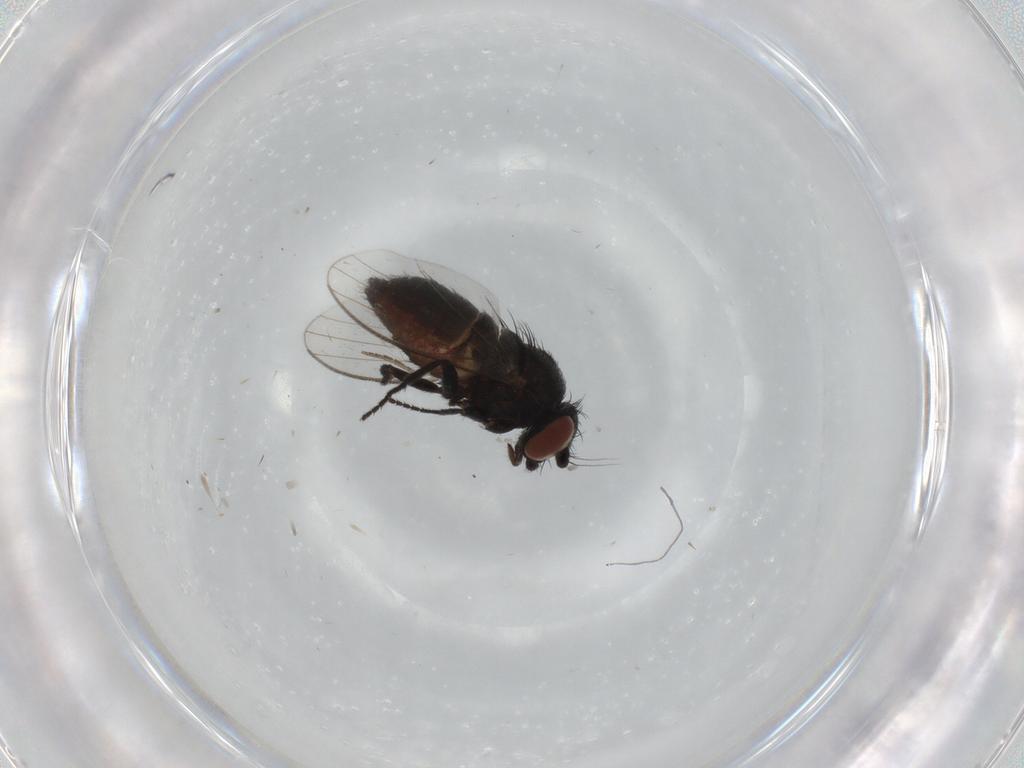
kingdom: Animalia
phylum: Arthropoda
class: Insecta
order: Diptera
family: Milichiidae
